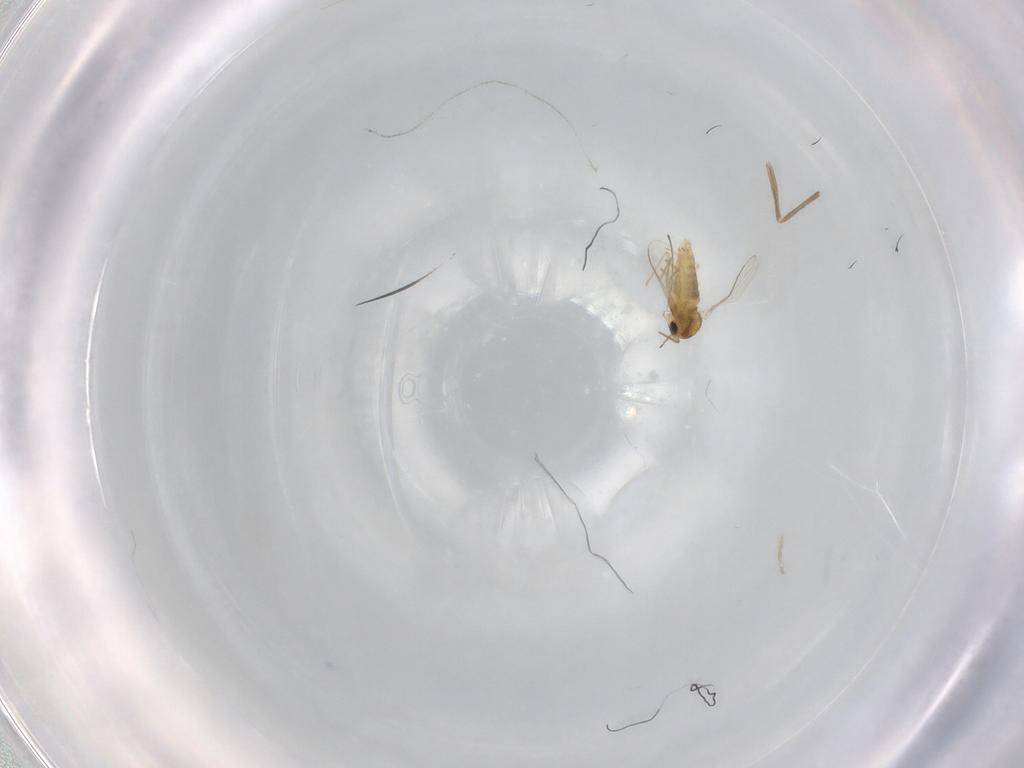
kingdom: Animalia
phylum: Arthropoda
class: Insecta
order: Diptera
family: Chironomidae
